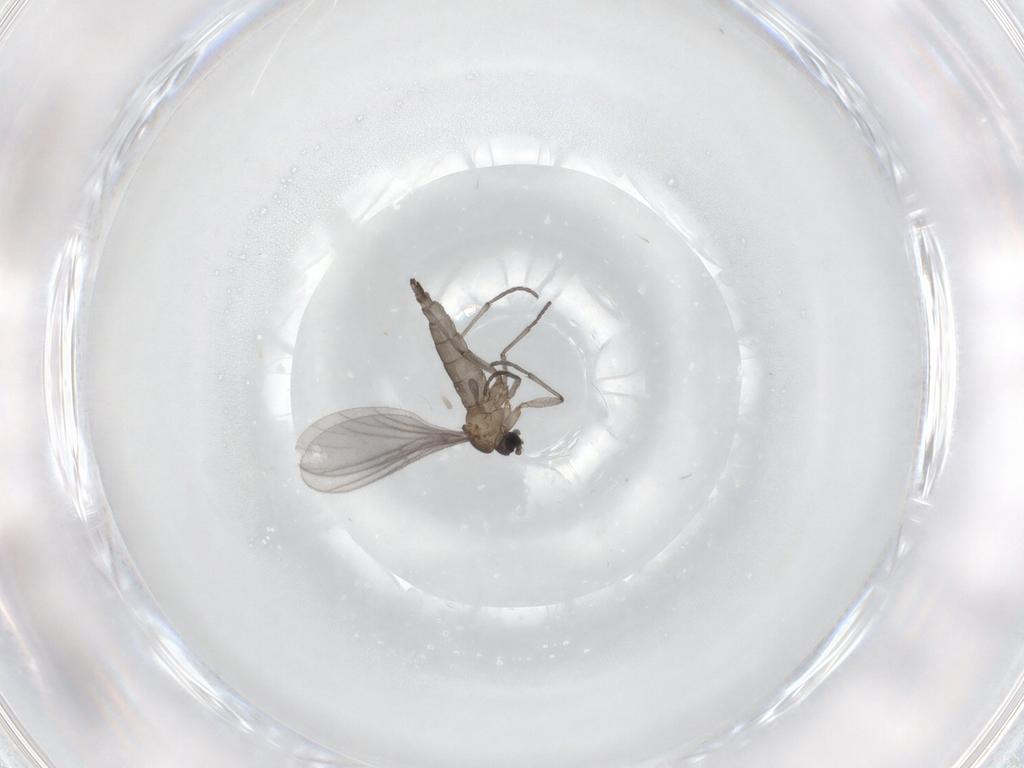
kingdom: Animalia
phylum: Arthropoda
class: Insecta
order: Diptera
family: Sciaridae
